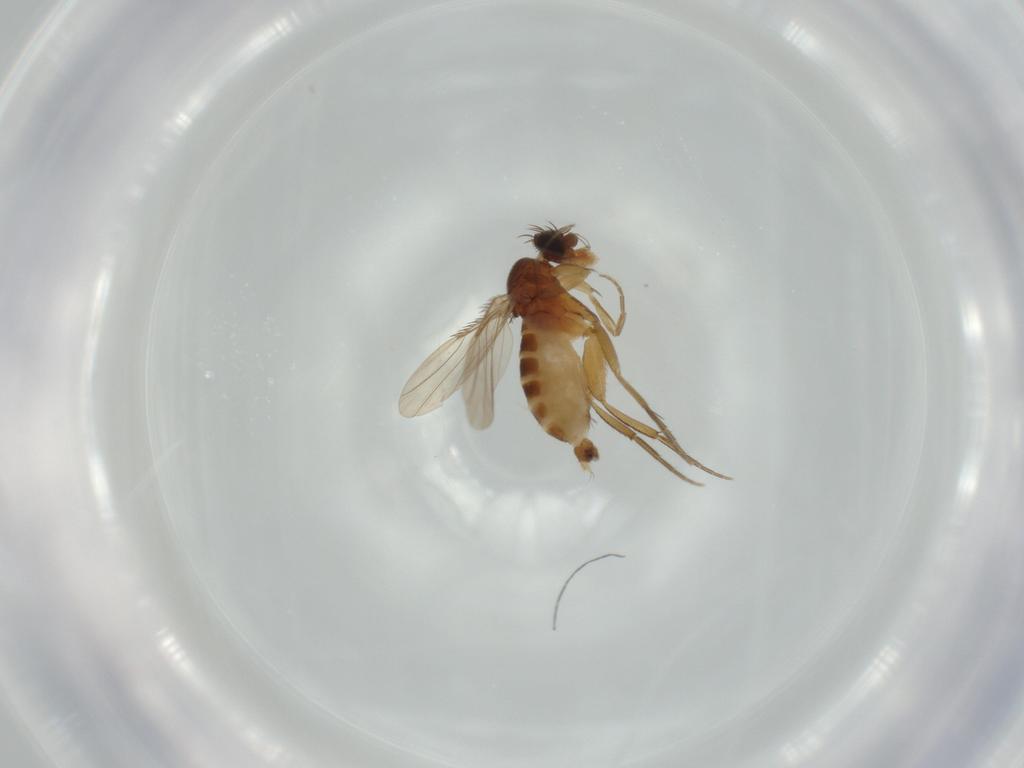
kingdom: Animalia
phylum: Arthropoda
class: Insecta
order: Diptera
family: Phoridae
